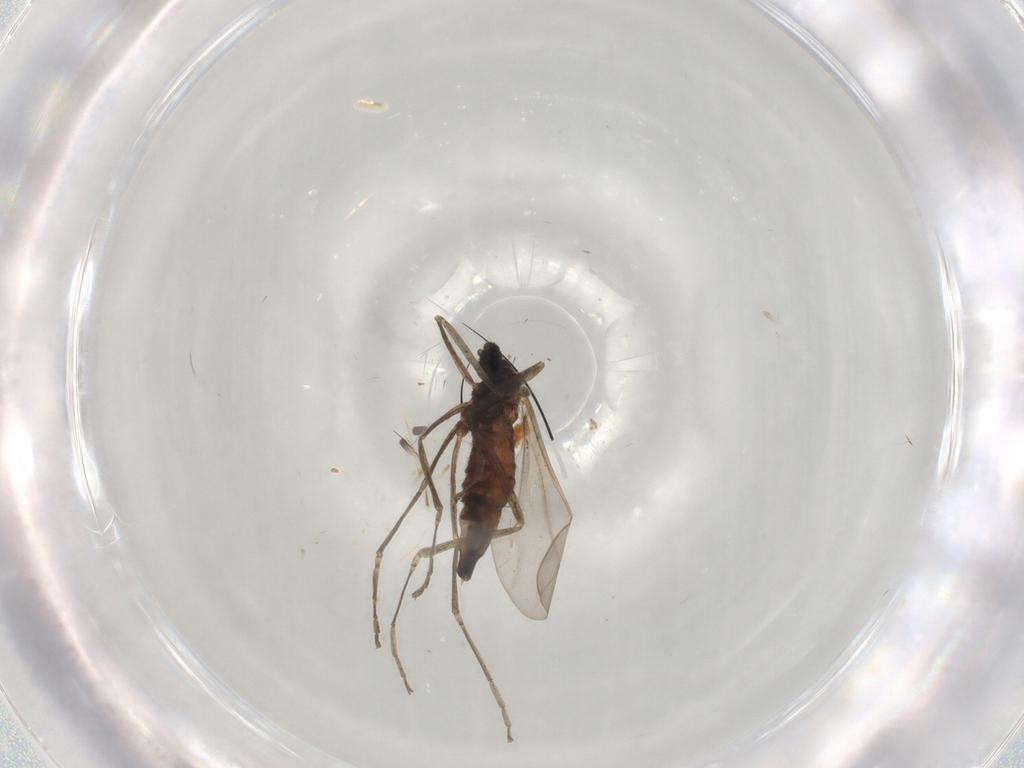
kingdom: Animalia
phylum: Arthropoda
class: Insecta
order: Diptera
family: Cecidomyiidae
